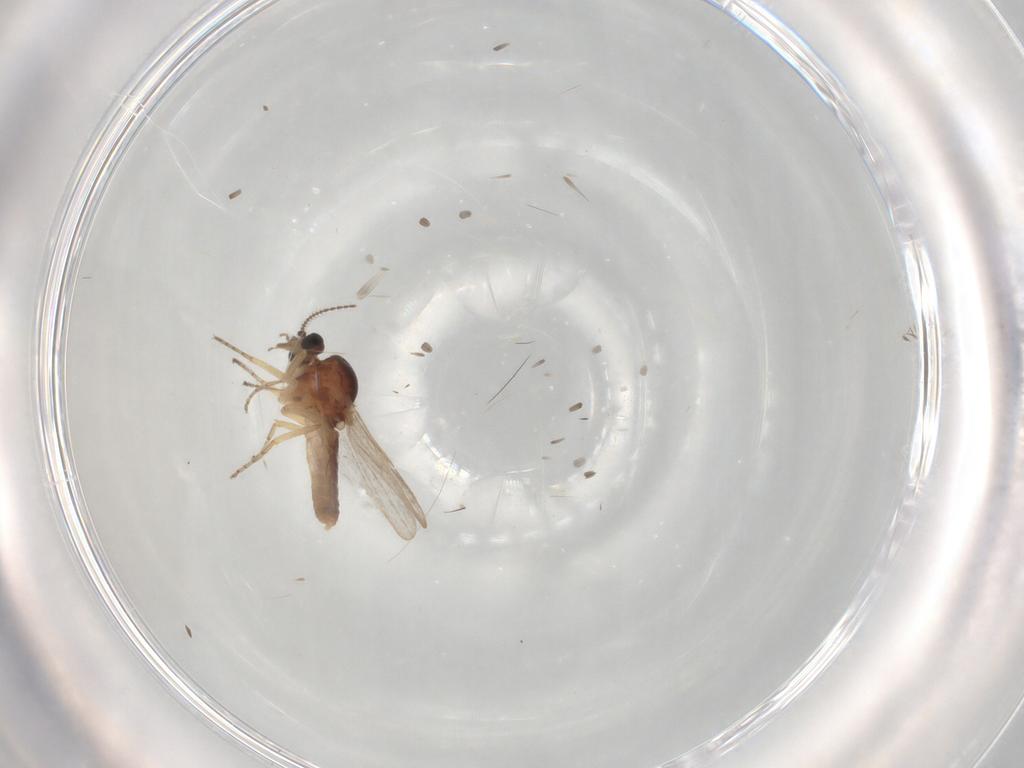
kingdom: Animalia
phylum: Arthropoda
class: Insecta
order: Diptera
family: Ceratopogonidae
